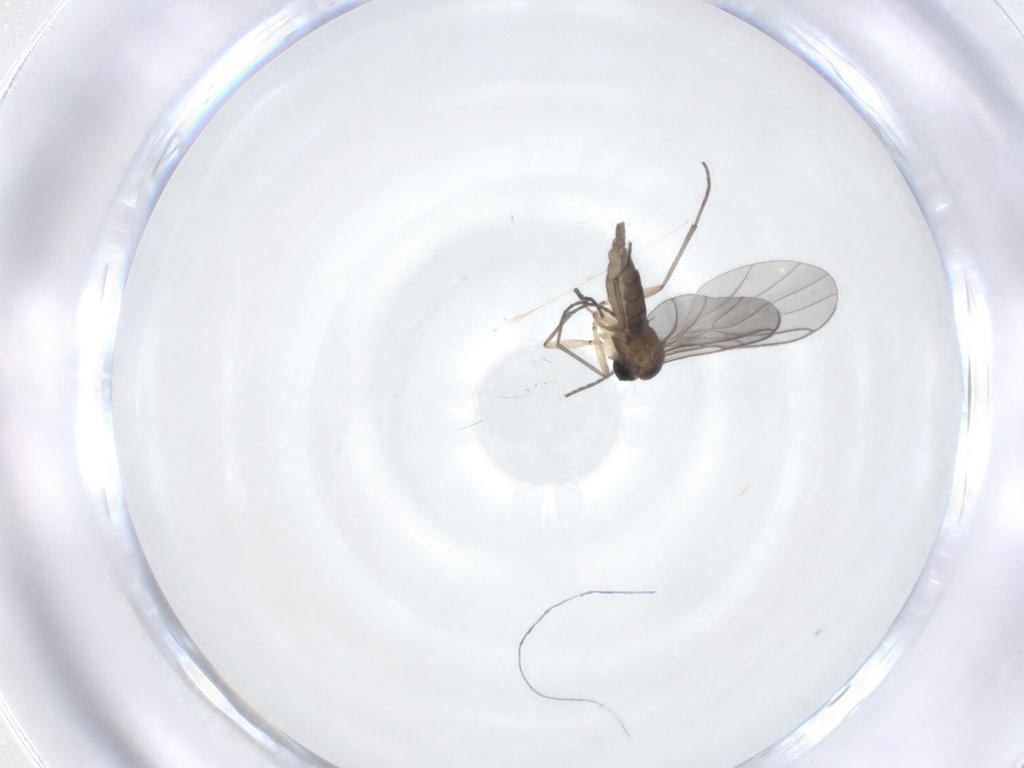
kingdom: Animalia
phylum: Arthropoda
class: Insecta
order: Diptera
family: Sciaridae
